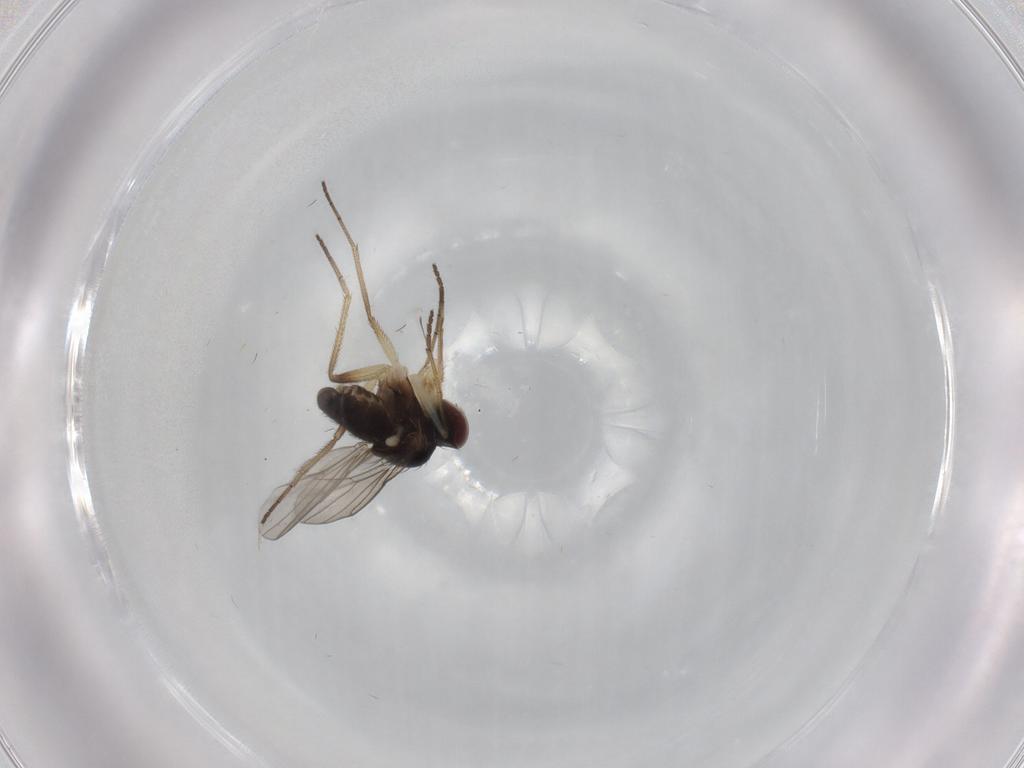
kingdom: Animalia
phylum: Arthropoda
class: Insecta
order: Diptera
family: Dolichopodidae
